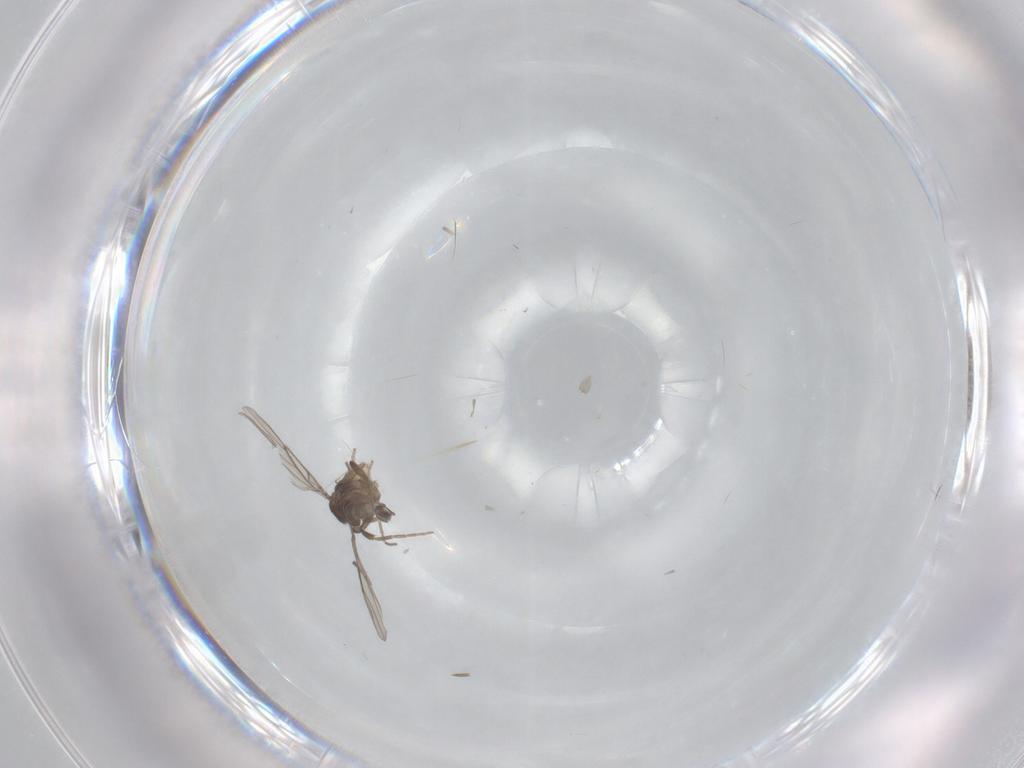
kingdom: Animalia
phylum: Arthropoda
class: Insecta
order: Diptera
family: Phoridae
